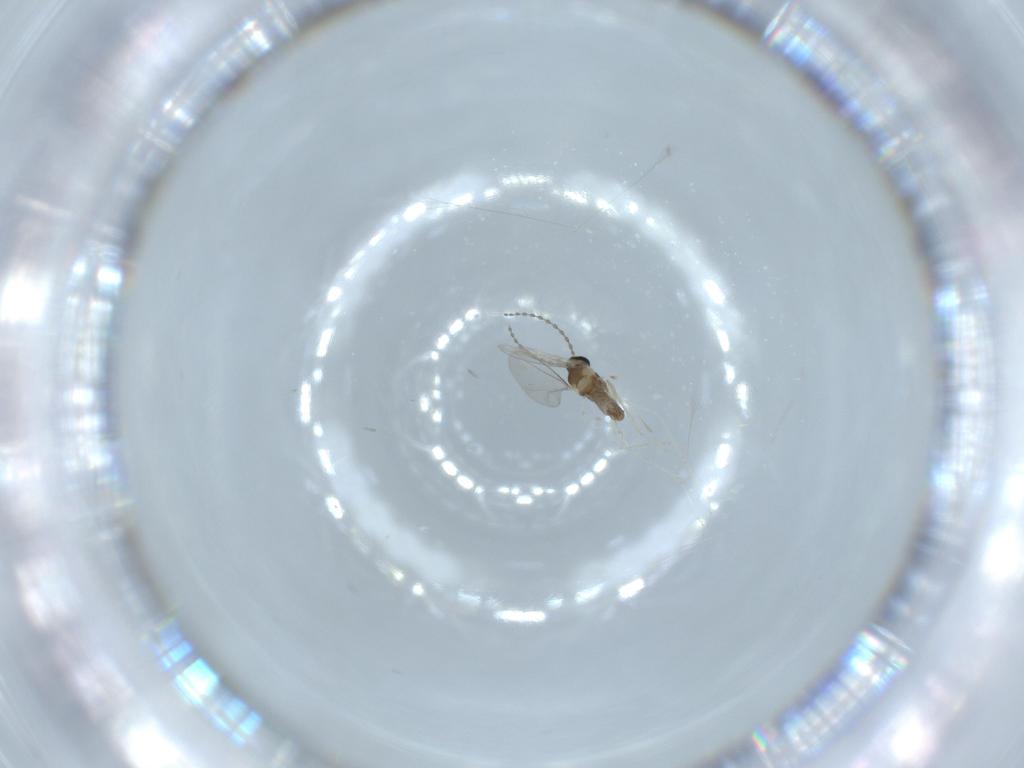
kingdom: Animalia
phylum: Arthropoda
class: Insecta
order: Diptera
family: Cecidomyiidae
